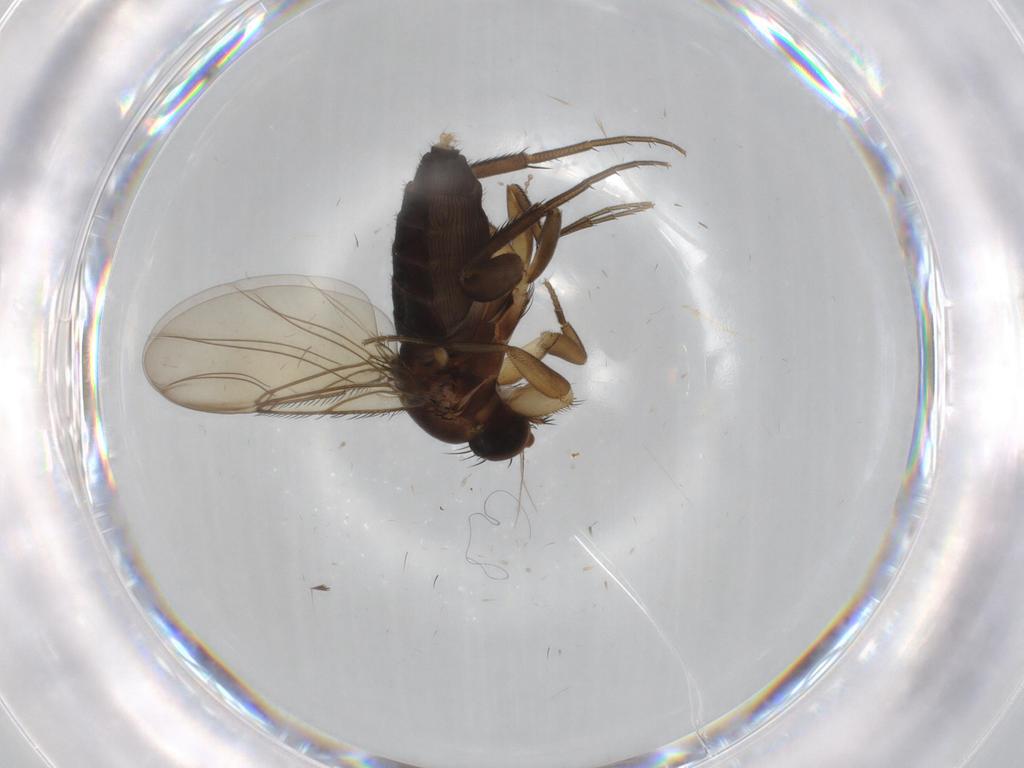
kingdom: Animalia
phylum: Arthropoda
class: Insecta
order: Diptera
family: Phoridae
